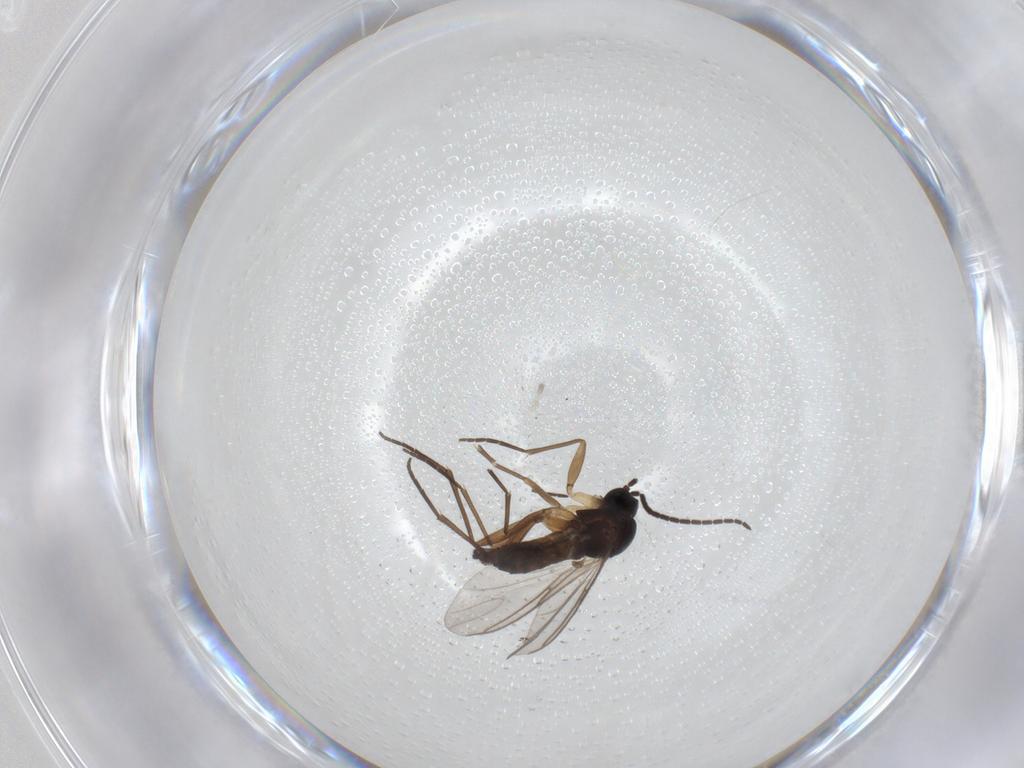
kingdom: Animalia
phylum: Arthropoda
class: Insecta
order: Diptera
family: Sciaridae
